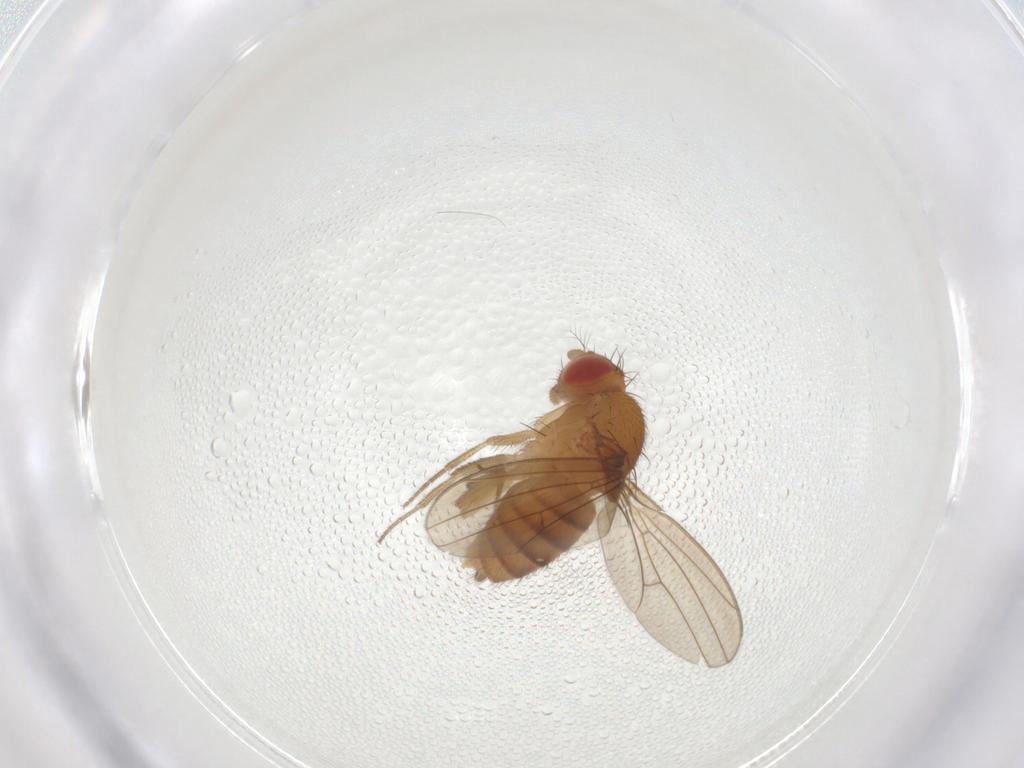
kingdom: Animalia
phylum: Arthropoda
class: Insecta
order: Diptera
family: Drosophilidae
